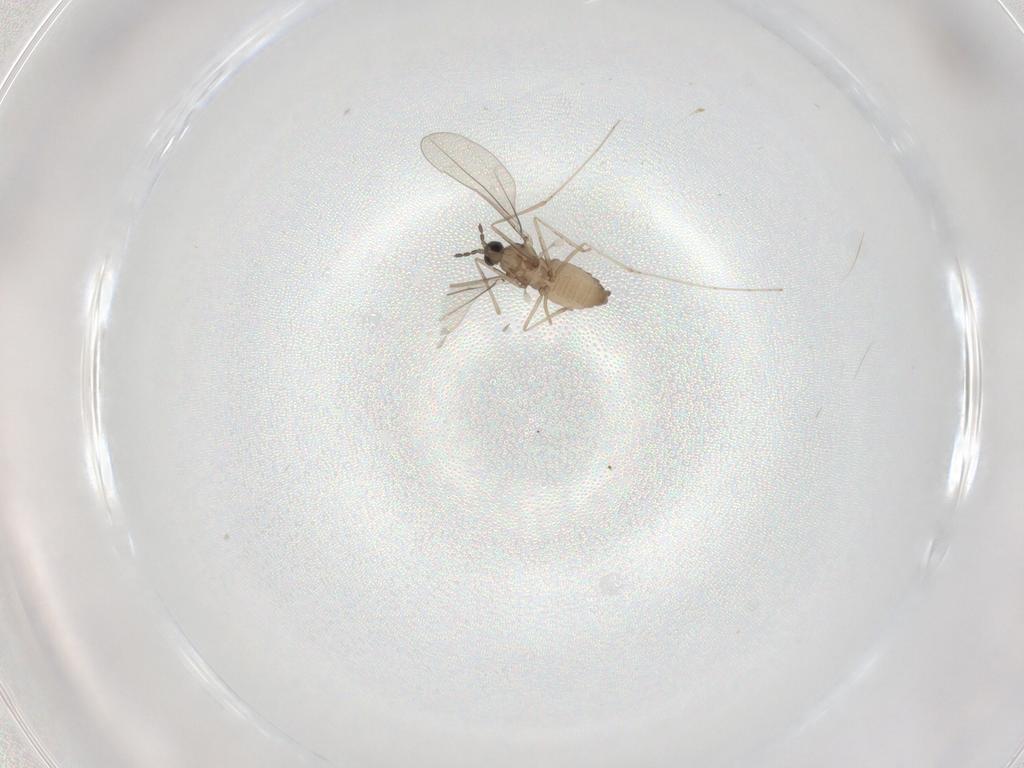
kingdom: Animalia
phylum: Arthropoda
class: Insecta
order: Diptera
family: Cecidomyiidae
